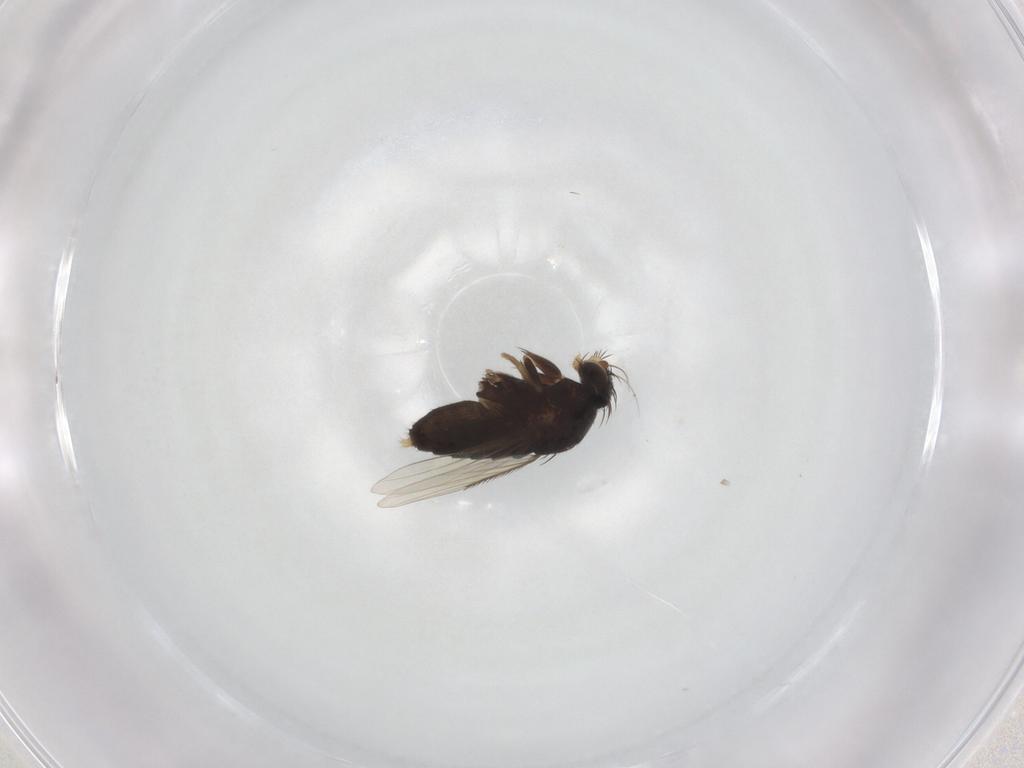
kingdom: Animalia
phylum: Arthropoda
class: Insecta
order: Diptera
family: Phoridae
